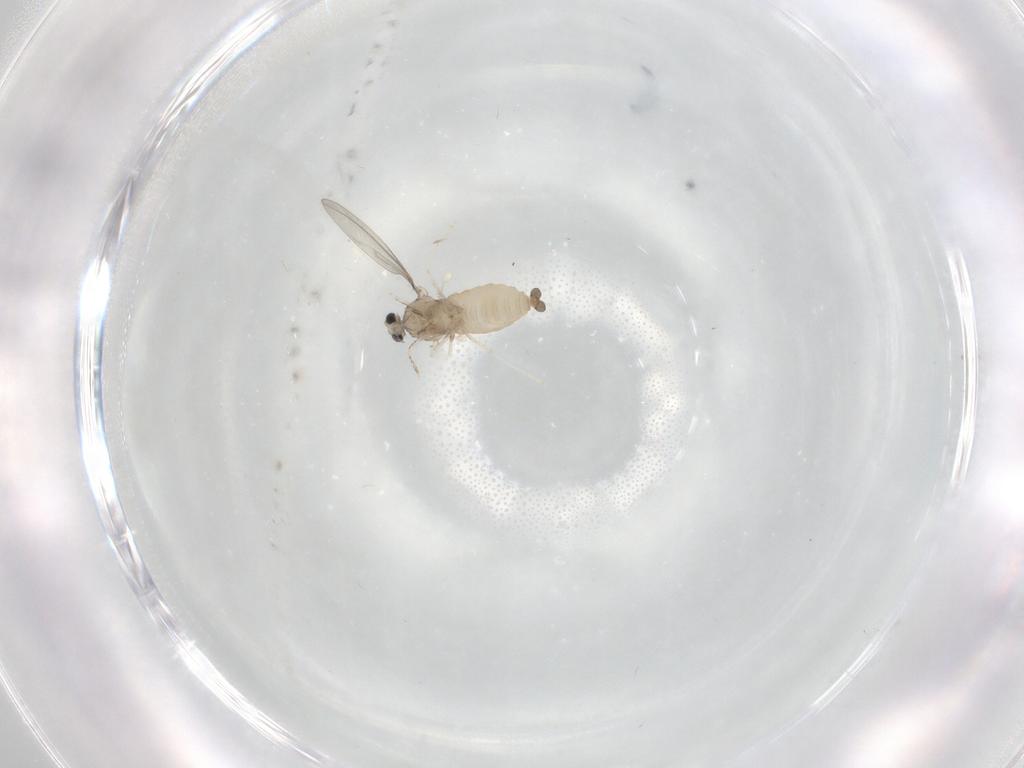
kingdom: Animalia
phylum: Arthropoda
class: Insecta
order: Diptera
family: Cecidomyiidae
